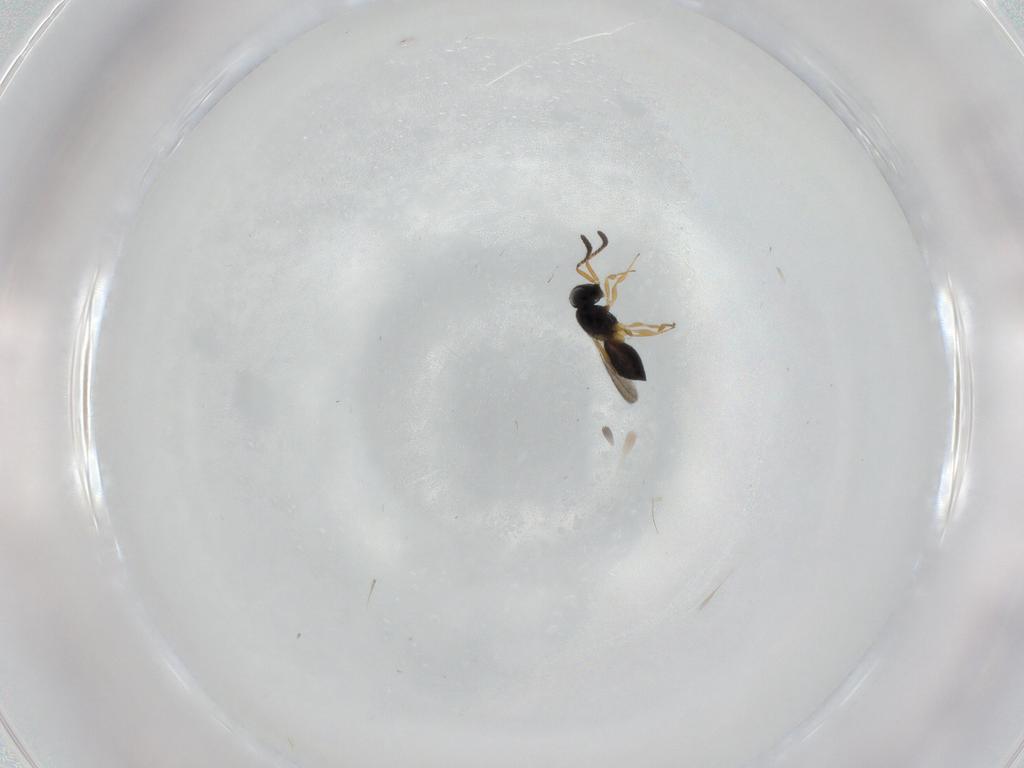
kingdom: Animalia
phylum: Arthropoda
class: Insecta
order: Hymenoptera
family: Scelionidae
